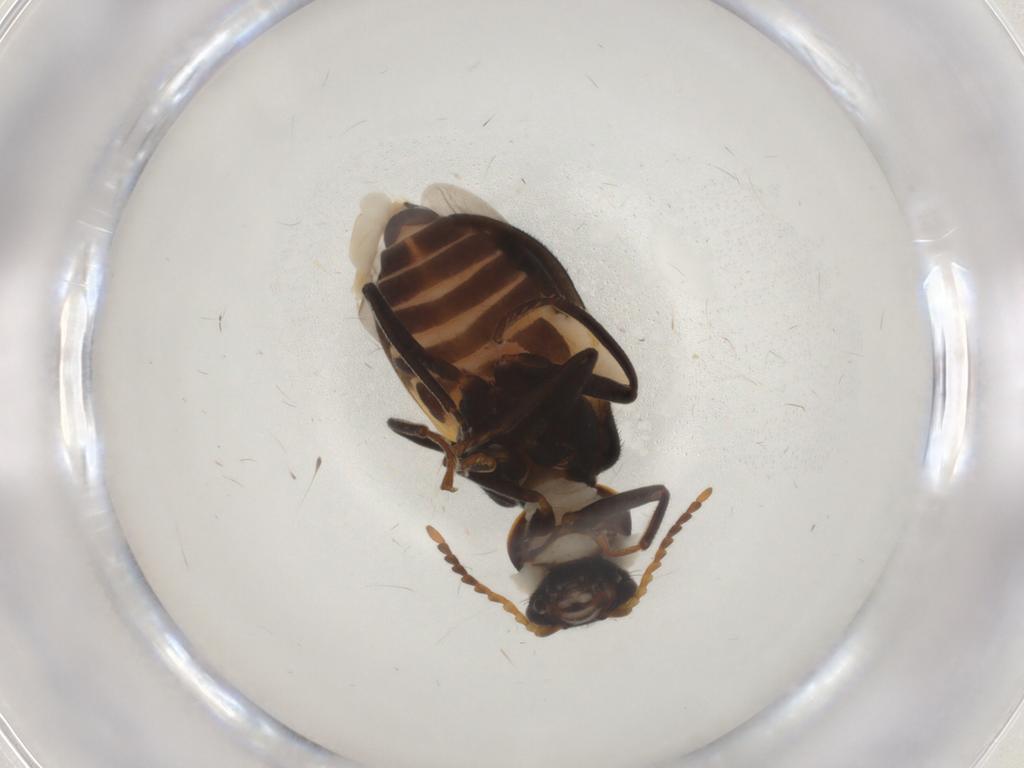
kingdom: Animalia
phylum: Arthropoda
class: Insecta
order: Coleoptera
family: Melyridae
